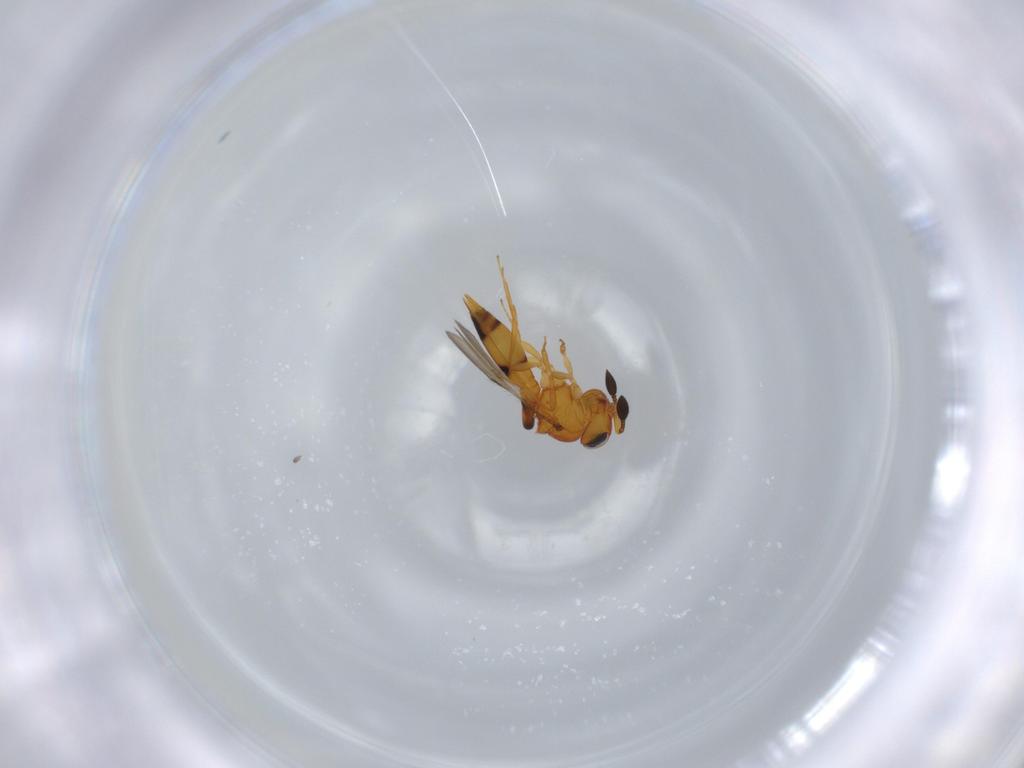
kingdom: Animalia
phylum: Arthropoda
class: Insecta
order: Hymenoptera
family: Scelionidae
